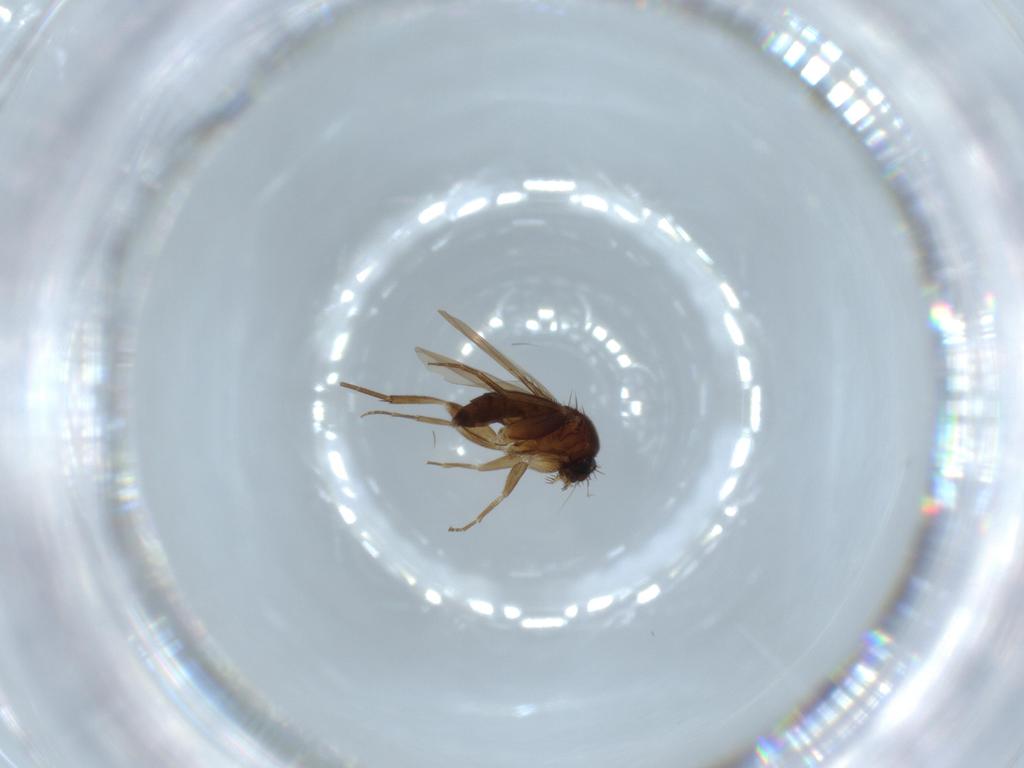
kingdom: Animalia
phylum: Arthropoda
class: Insecta
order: Diptera
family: Phoridae
